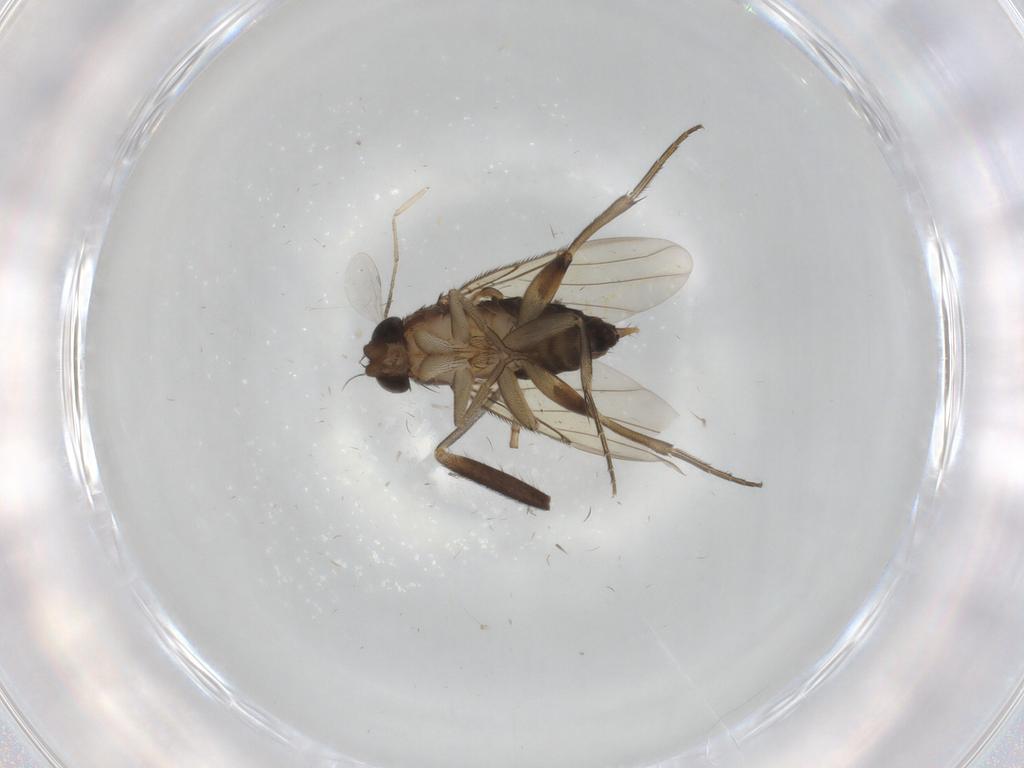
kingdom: Animalia
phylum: Arthropoda
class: Insecta
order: Diptera
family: Sciaridae
